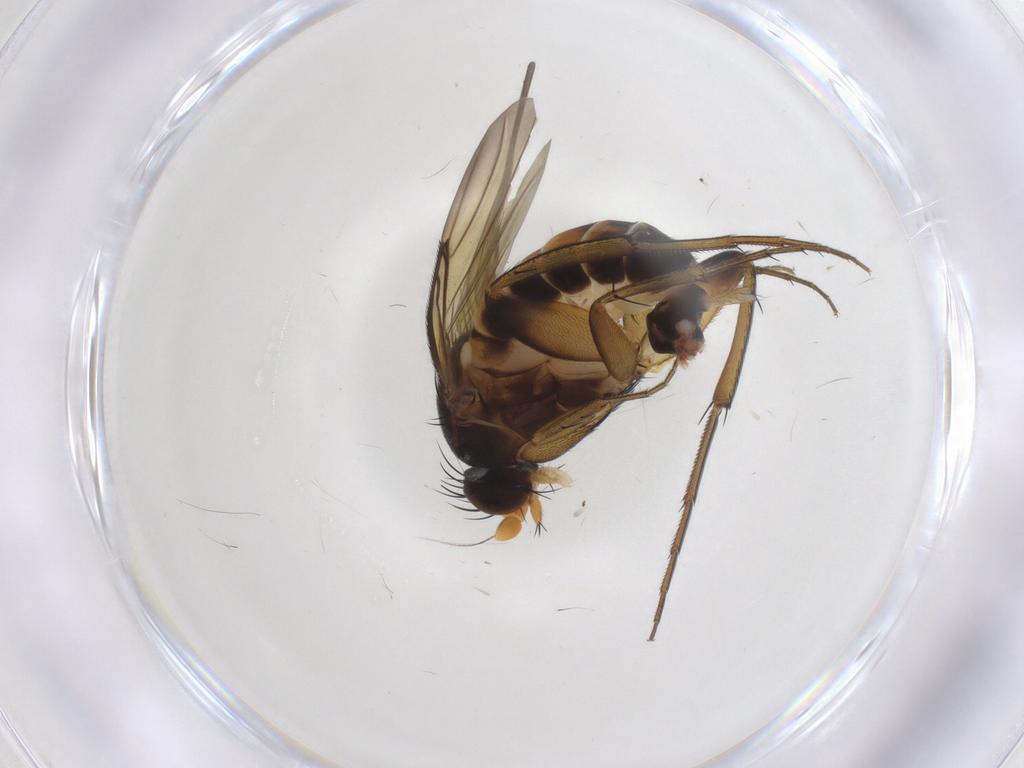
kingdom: Animalia
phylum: Arthropoda
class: Insecta
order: Diptera
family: Phoridae
